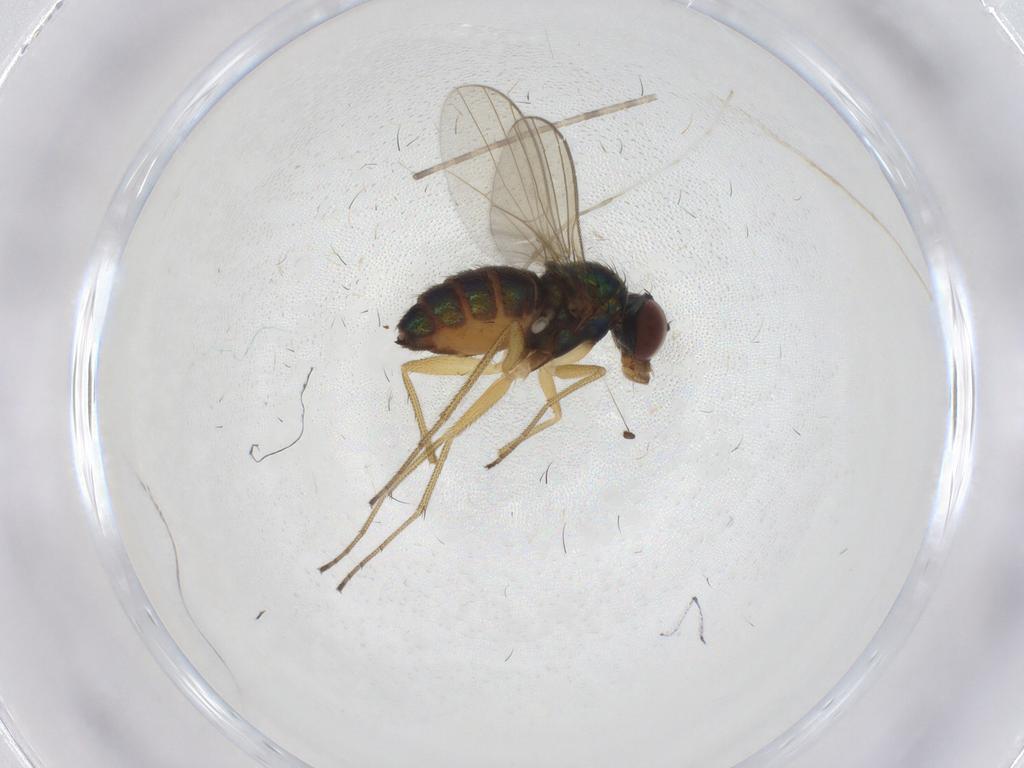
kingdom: Animalia
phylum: Arthropoda
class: Insecta
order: Diptera
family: Dolichopodidae
